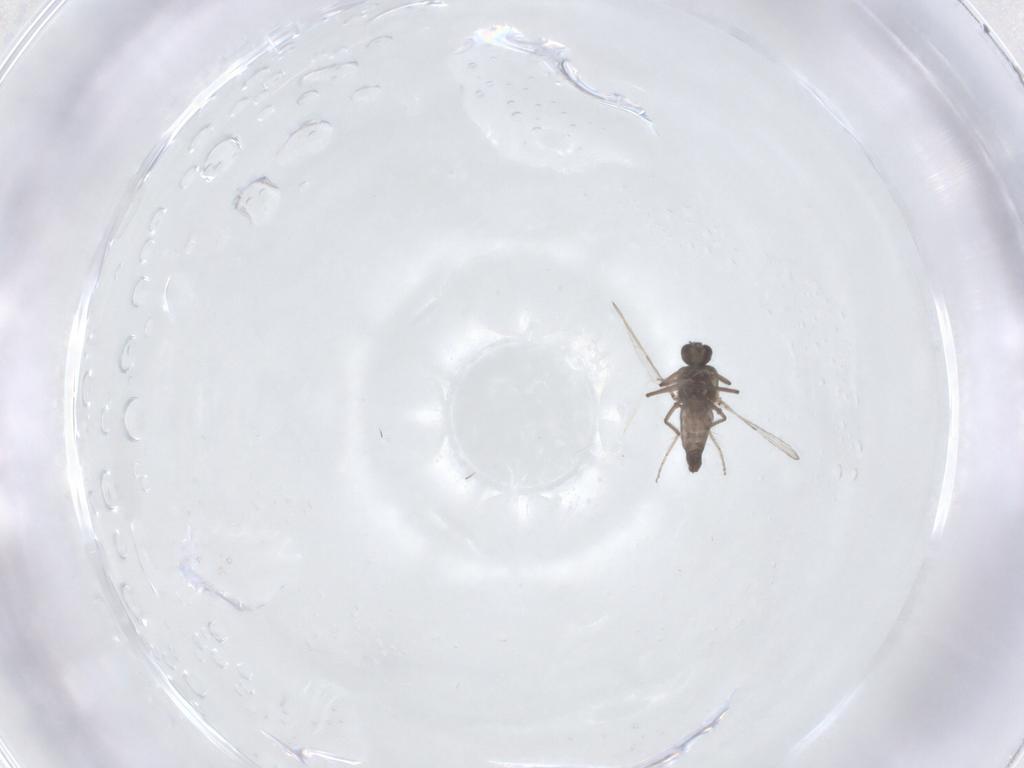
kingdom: Animalia
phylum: Arthropoda
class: Insecta
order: Diptera
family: Ceratopogonidae
